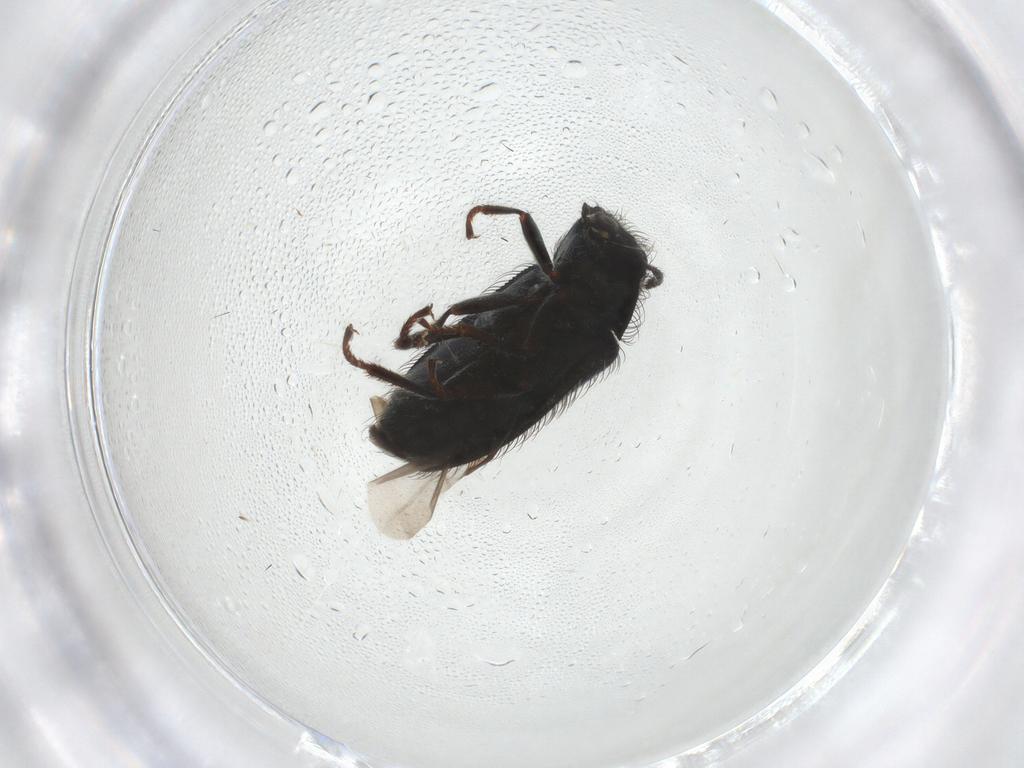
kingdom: Animalia
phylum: Arthropoda
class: Insecta
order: Coleoptera
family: Melyridae
